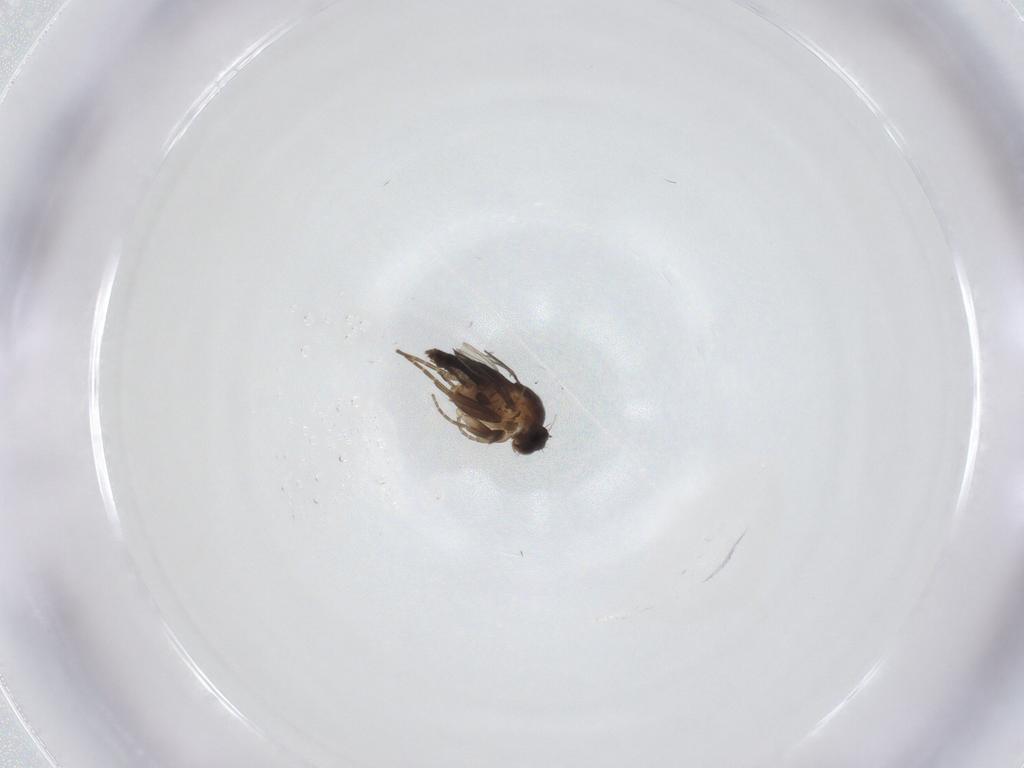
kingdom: Animalia
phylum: Arthropoda
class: Insecta
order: Diptera
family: Phoridae
